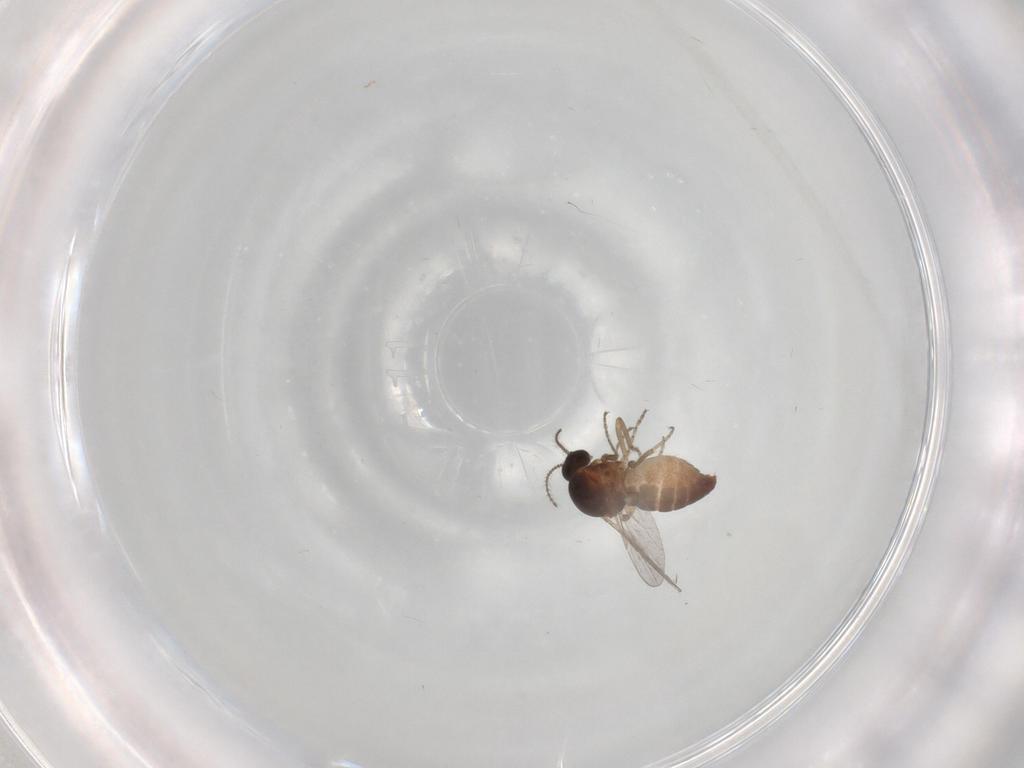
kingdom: Animalia
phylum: Arthropoda
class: Insecta
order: Diptera
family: Ceratopogonidae
